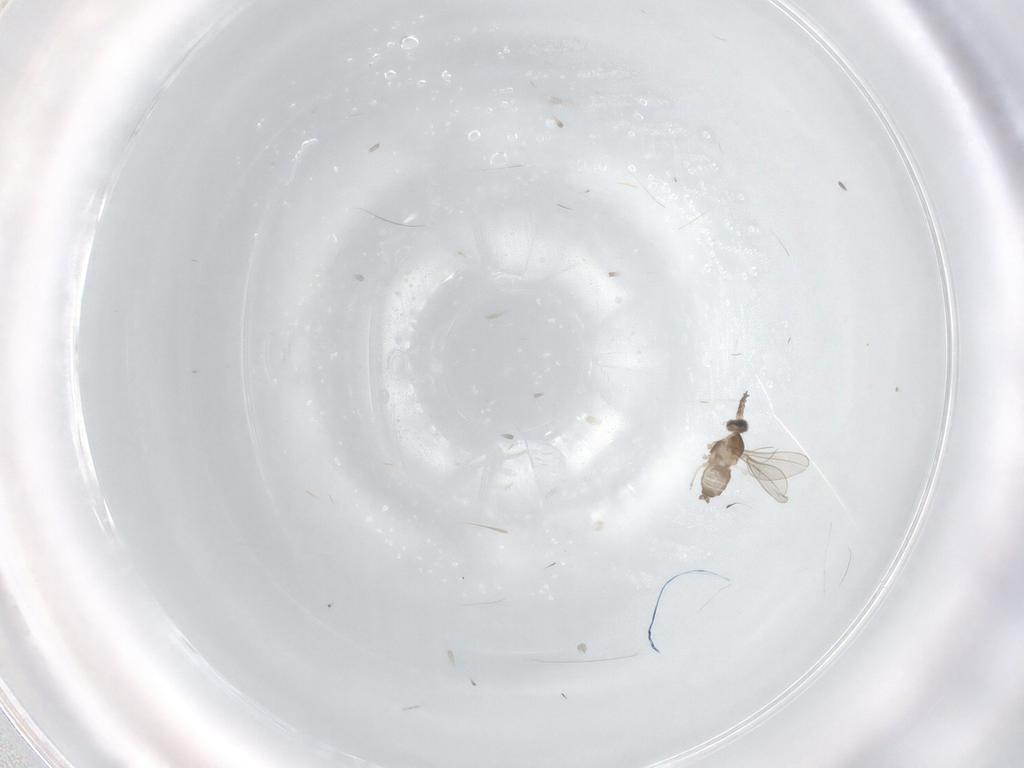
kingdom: Animalia
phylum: Arthropoda
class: Insecta
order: Diptera
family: Cecidomyiidae
